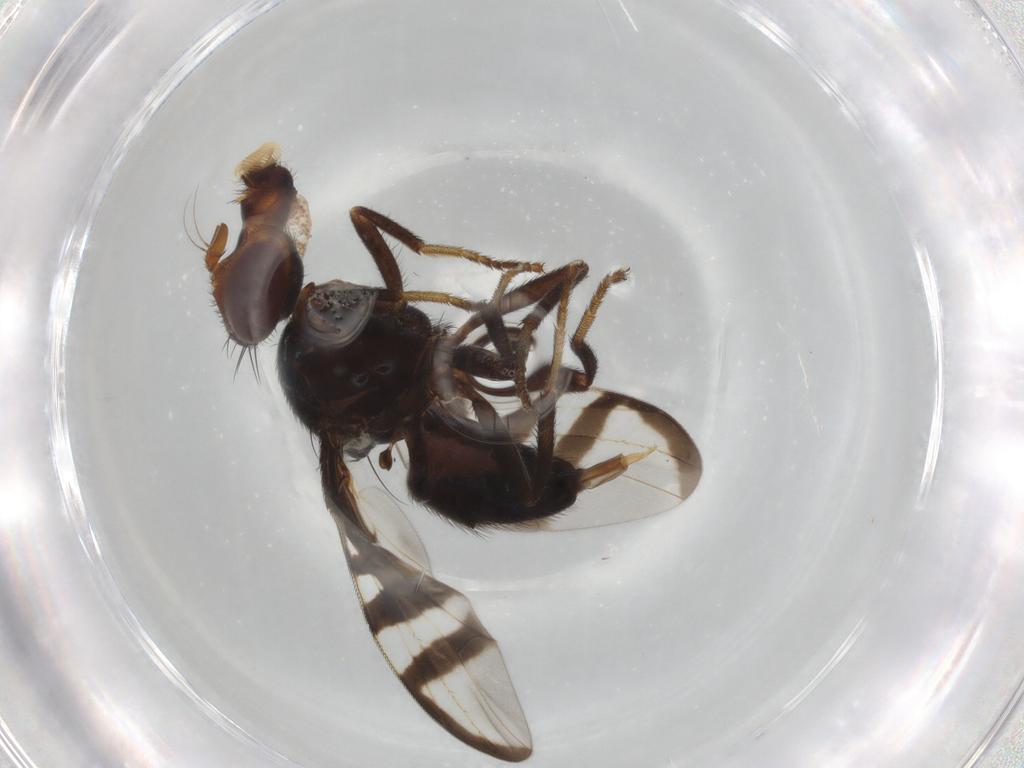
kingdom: Animalia
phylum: Arthropoda
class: Insecta
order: Diptera
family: Platystomatidae
